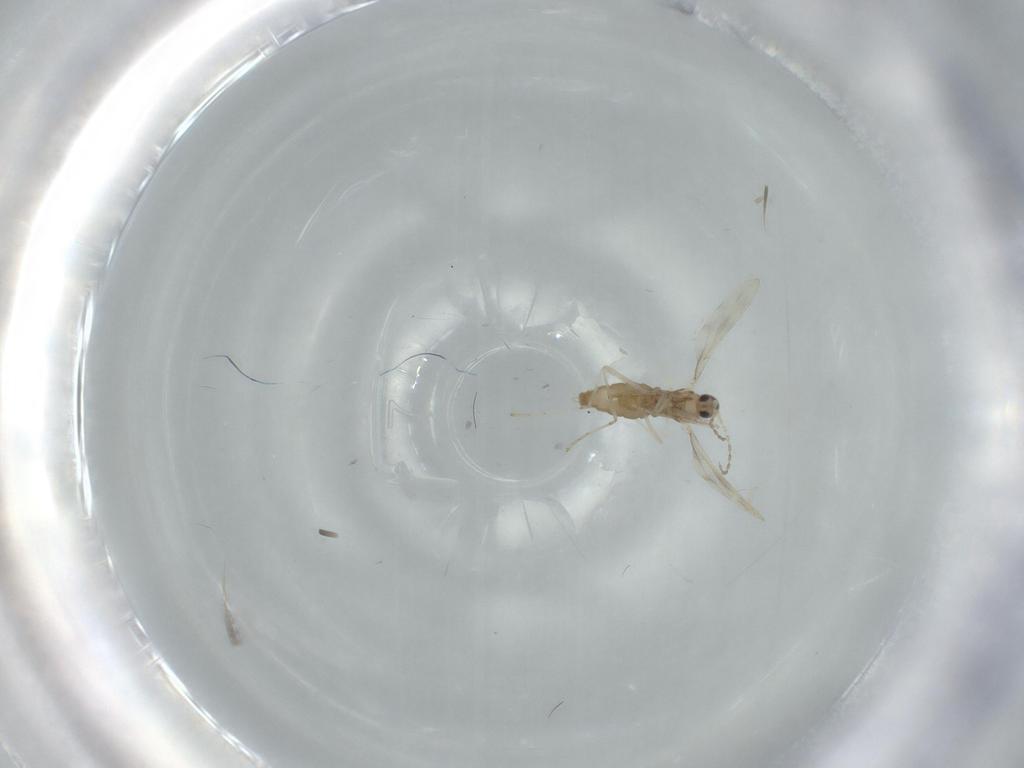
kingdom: Animalia
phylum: Arthropoda
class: Insecta
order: Diptera
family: Cecidomyiidae
